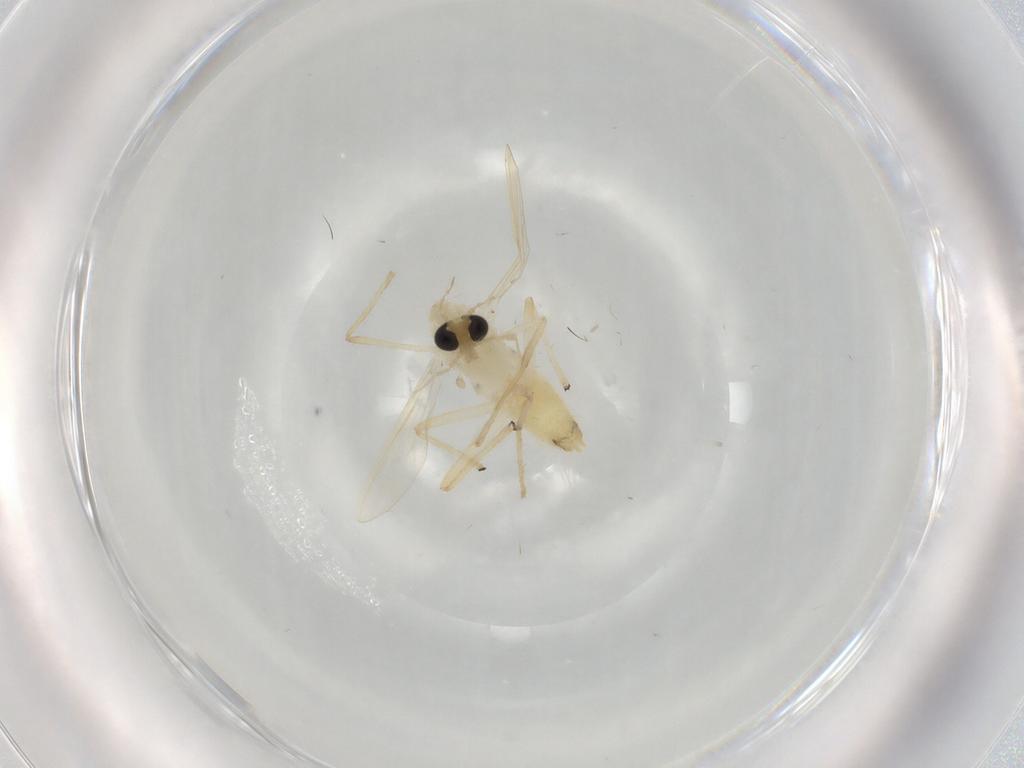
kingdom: Animalia
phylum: Arthropoda
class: Insecta
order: Diptera
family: Chironomidae
